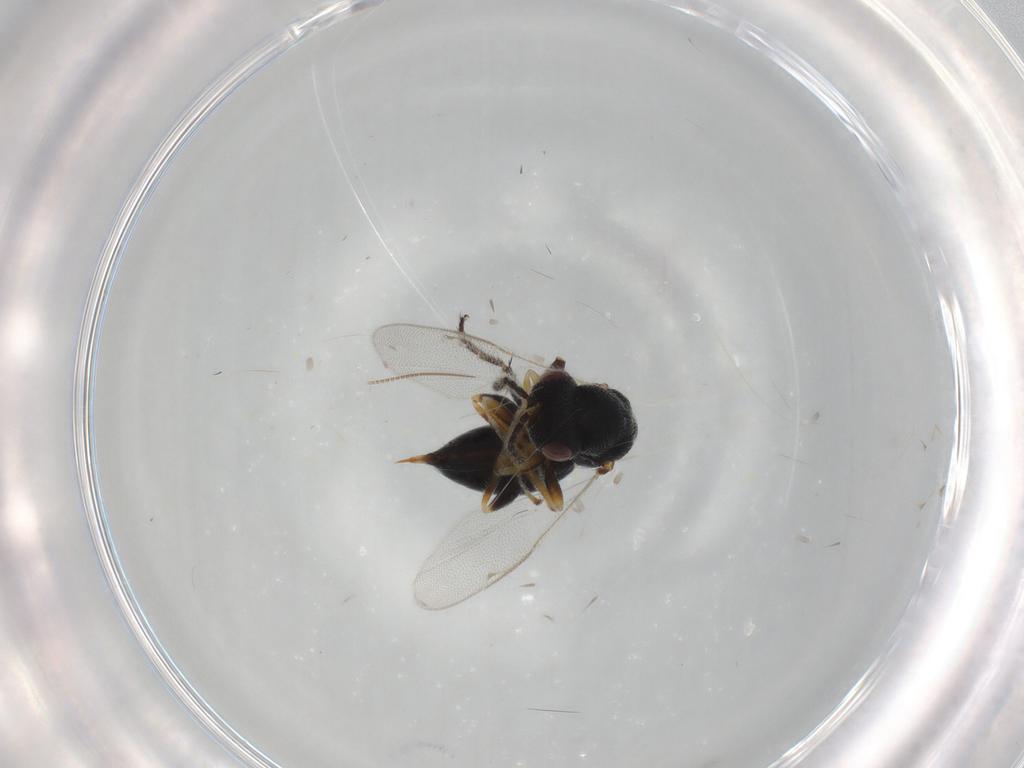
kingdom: Animalia
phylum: Arthropoda
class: Insecta
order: Hymenoptera
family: Eurytomidae
